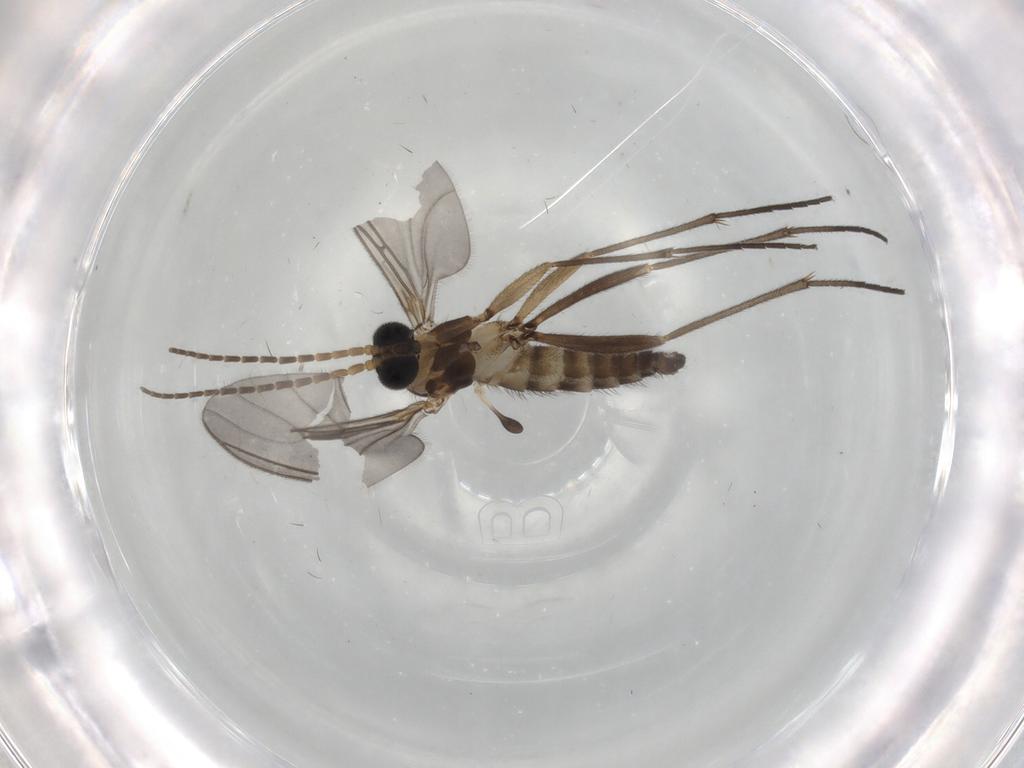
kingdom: Animalia
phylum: Arthropoda
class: Insecta
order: Diptera
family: Sciaridae
